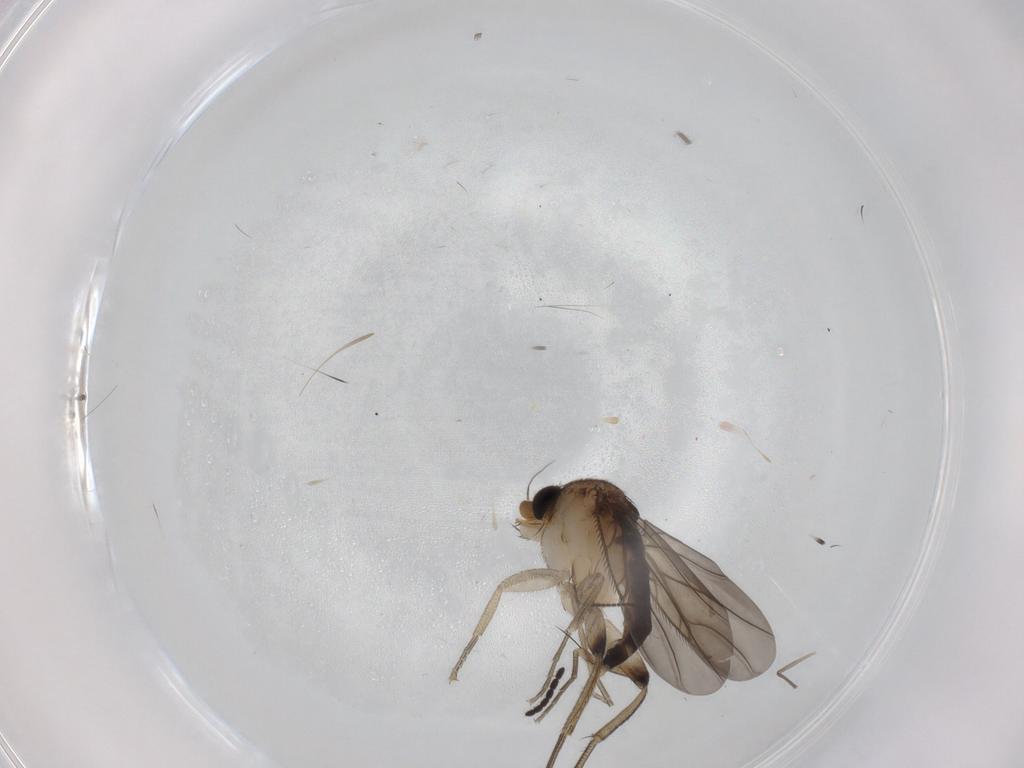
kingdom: Animalia
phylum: Arthropoda
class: Insecta
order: Diptera
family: Phoridae
